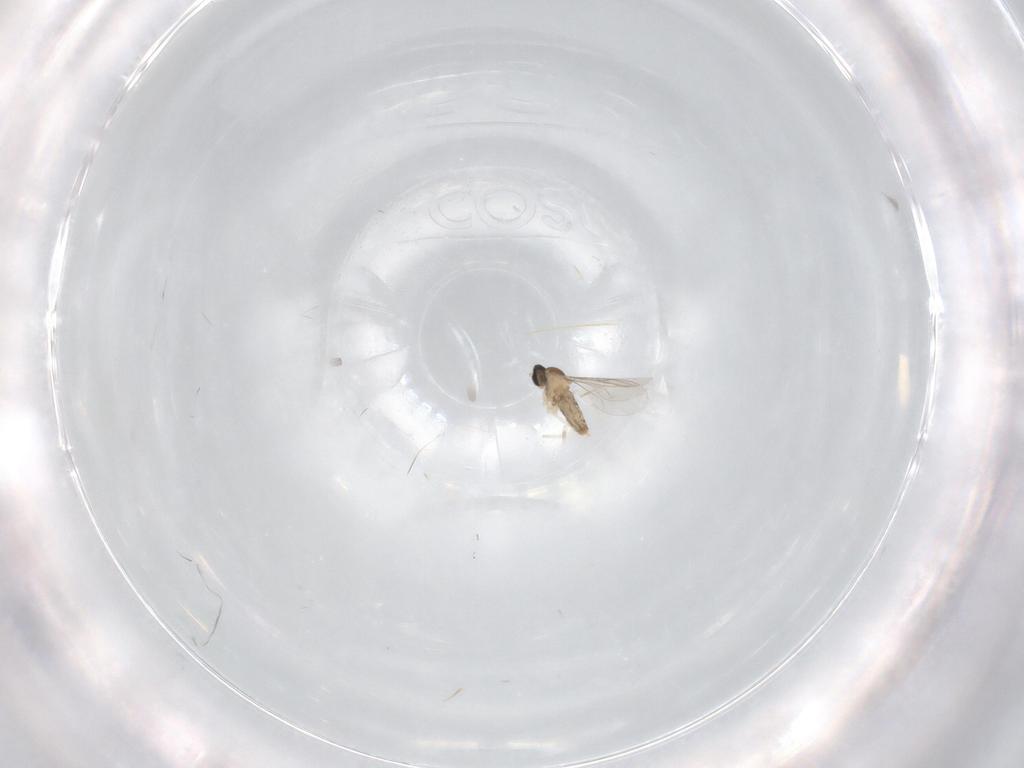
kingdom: Animalia
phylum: Arthropoda
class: Insecta
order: Diptera
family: Cecidomyiidae
